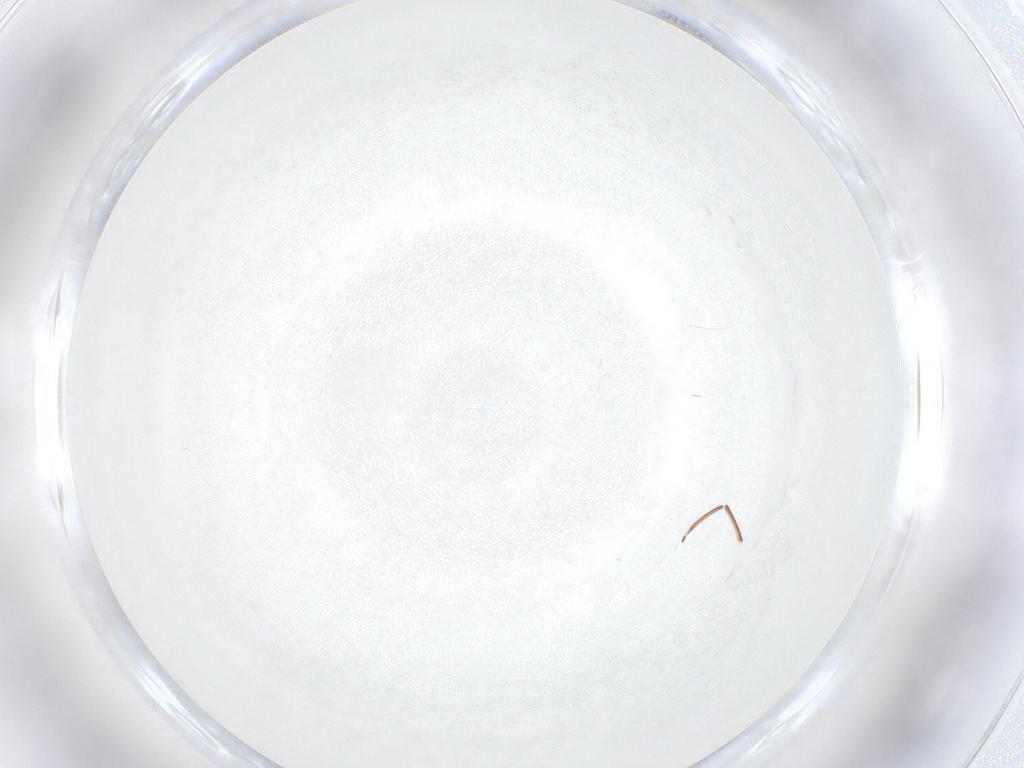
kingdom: Animalia
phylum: Arthropoda
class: Collembola
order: Entomobryomorpha
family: Entomobryidae
